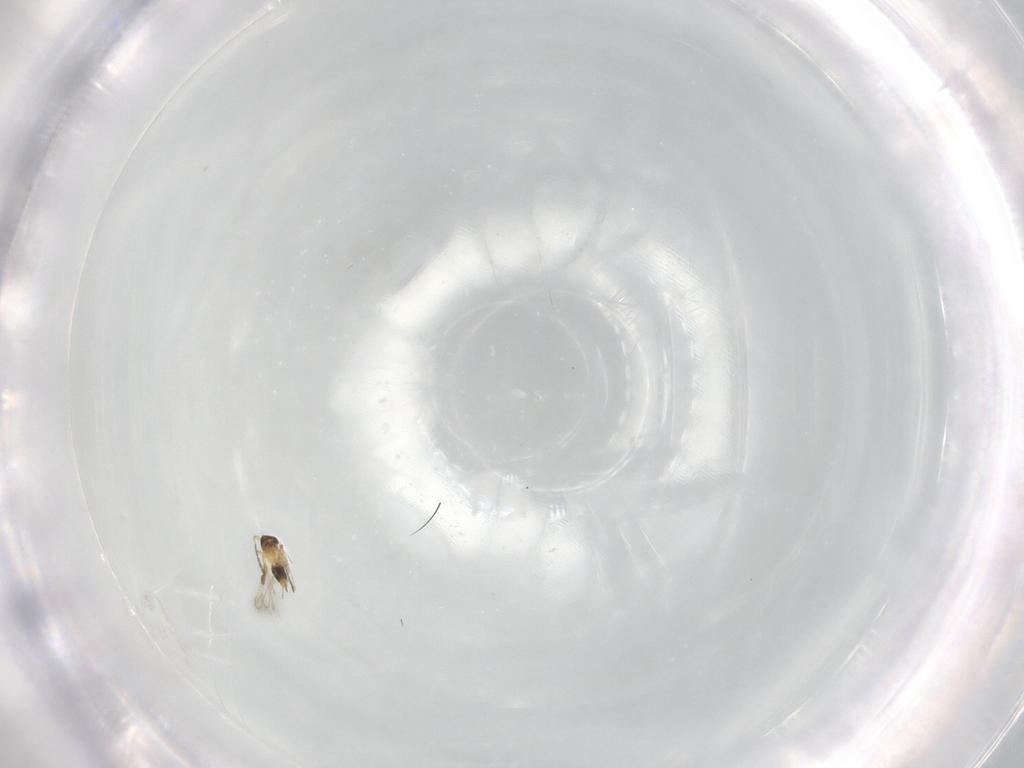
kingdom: Animalia
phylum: Arthropoda
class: Insecta
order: Hymenoptera
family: Mymaridae
